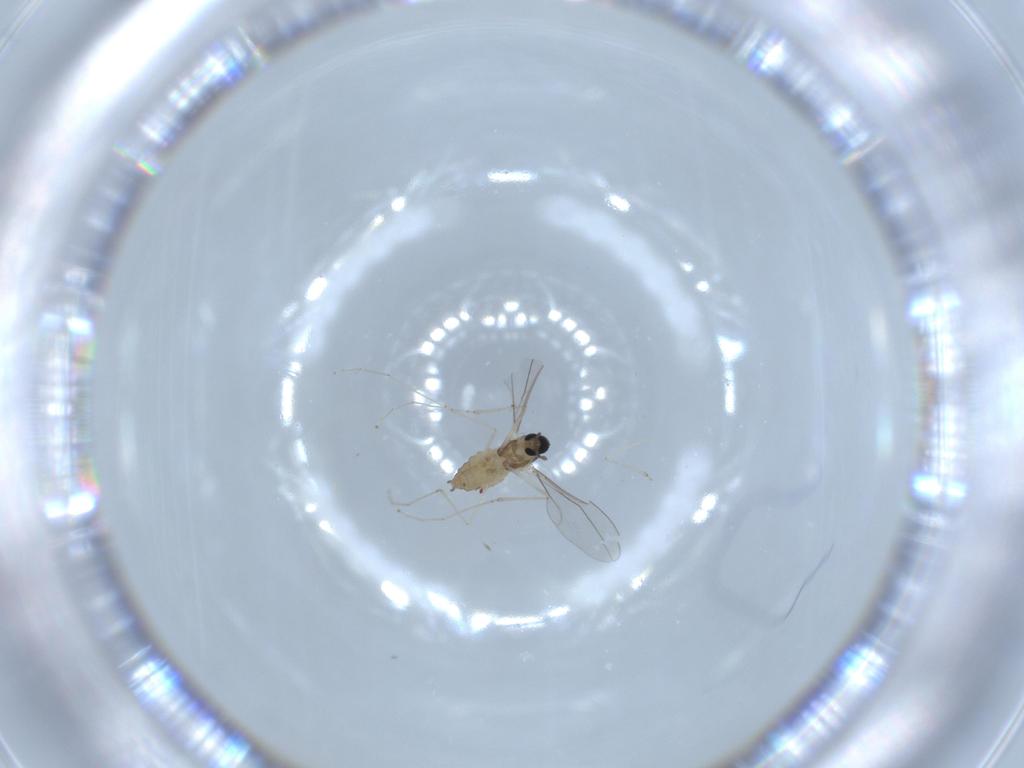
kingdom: Animalia
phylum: Arthropoda
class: Insecta
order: Diptera
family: Cecidomyiidae
